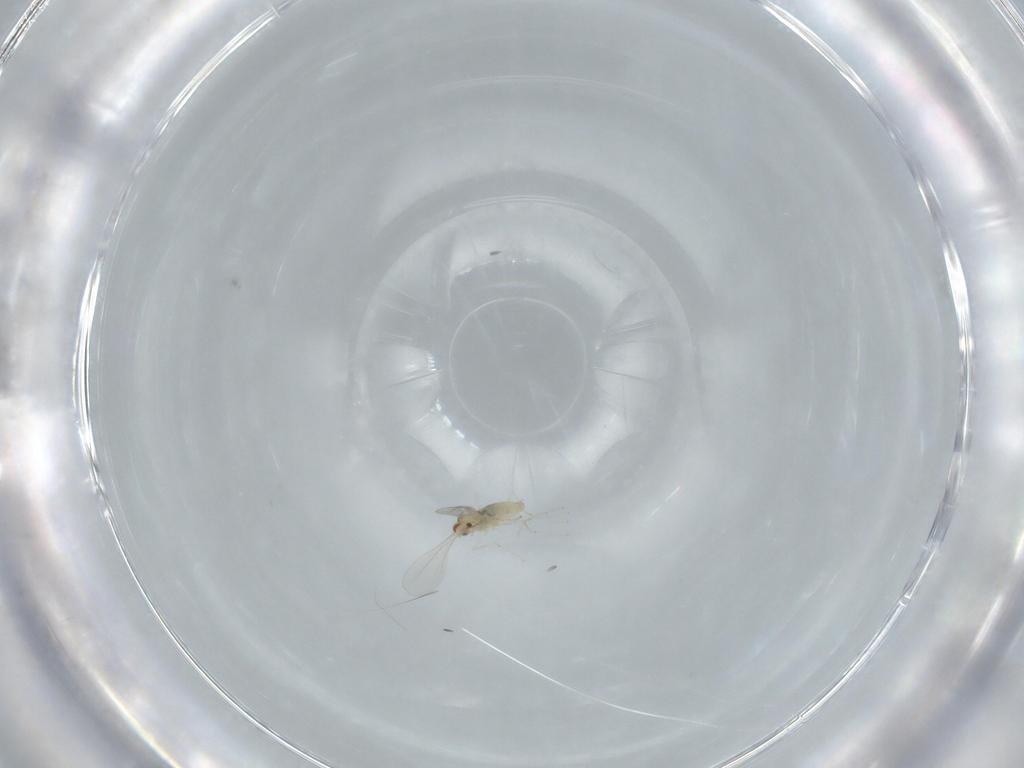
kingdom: Animalia
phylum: Arthropoda
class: Insecta
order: Diptera
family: Cecidomyiidae
